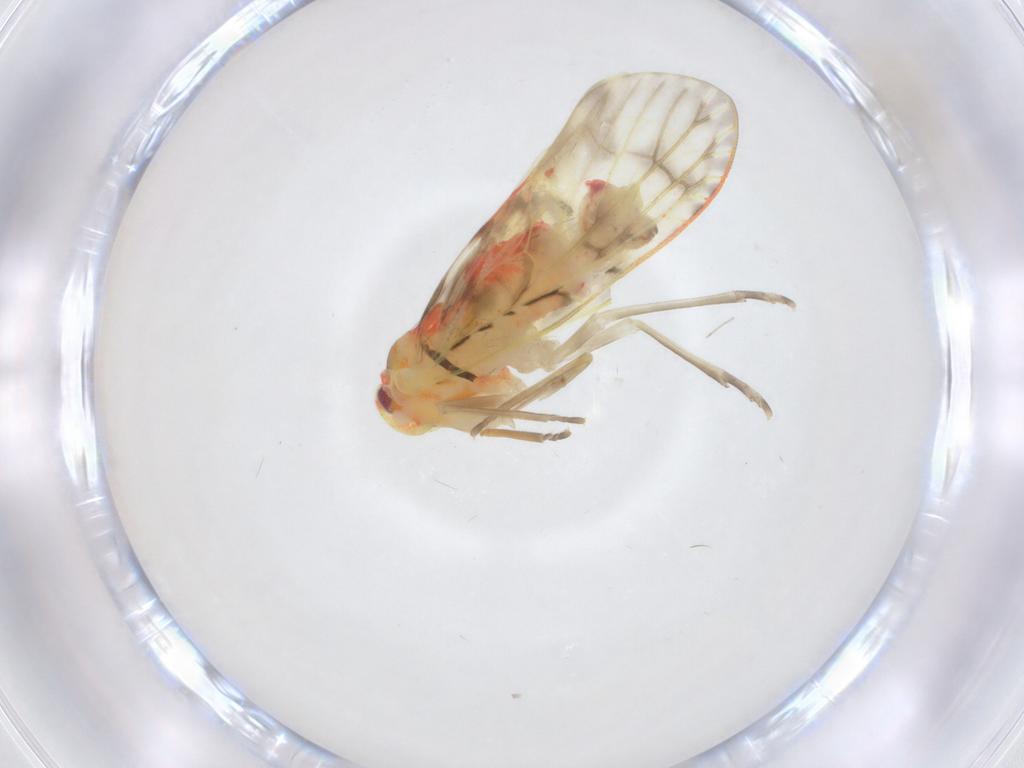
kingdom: Animalia
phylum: Arthropoda
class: Insecta
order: Hemiptera
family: Derbidae
